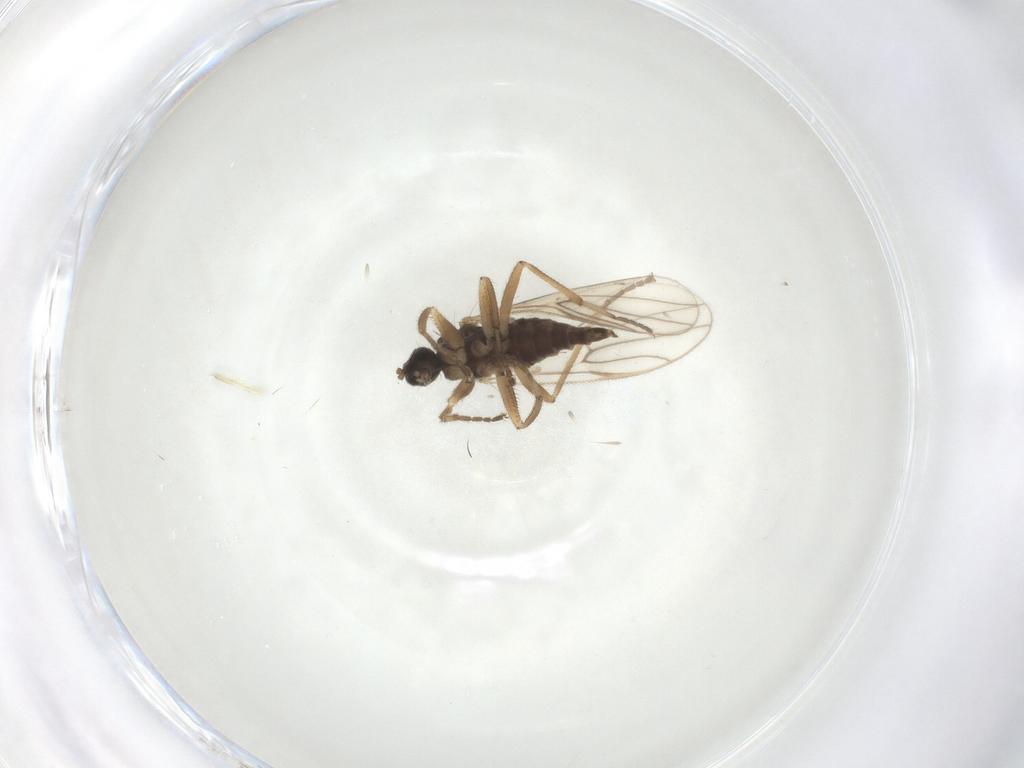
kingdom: Animalia
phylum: Arthropoda
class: Insecta
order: Diptera
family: Hybotidae
